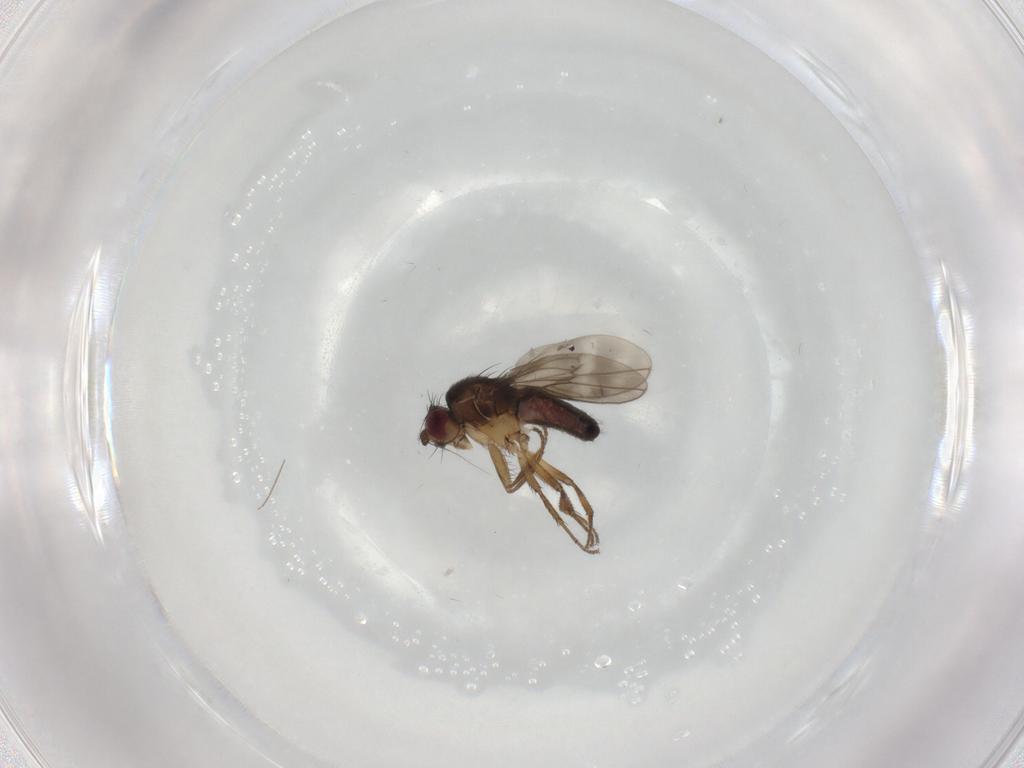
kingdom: Animalia
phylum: Arthropoda
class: Insecta
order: Diptera
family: Sphaeroceridae
